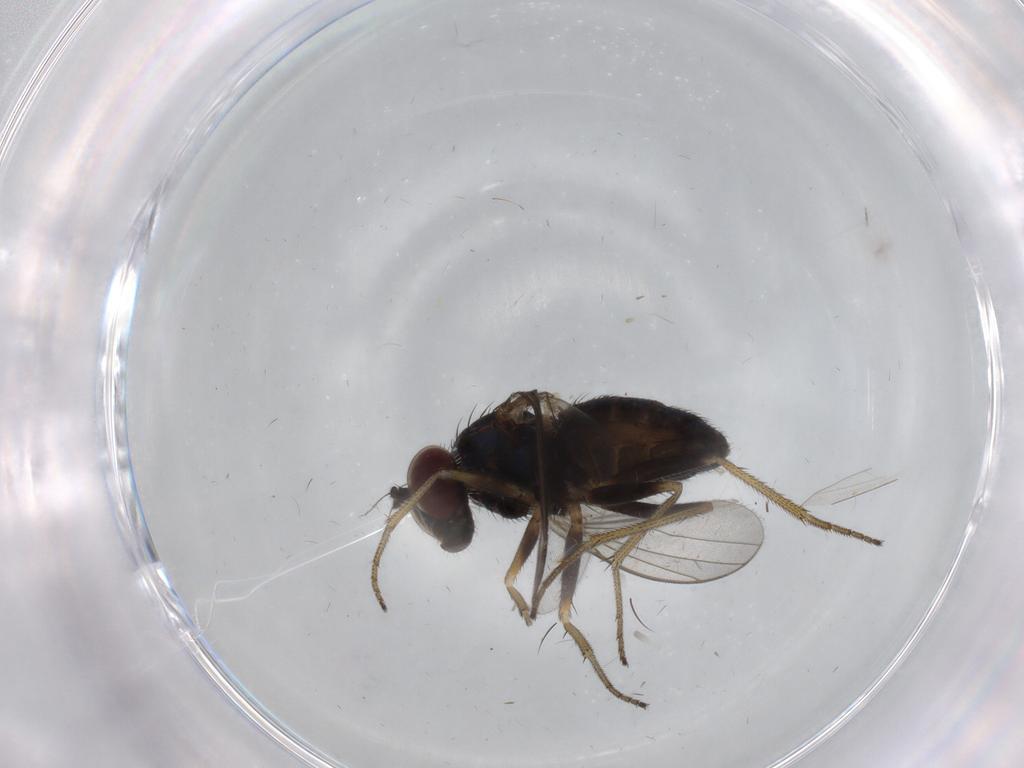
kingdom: Animalia
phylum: Arthropoda
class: Insecta
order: Diptera
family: Dolichopodidae
